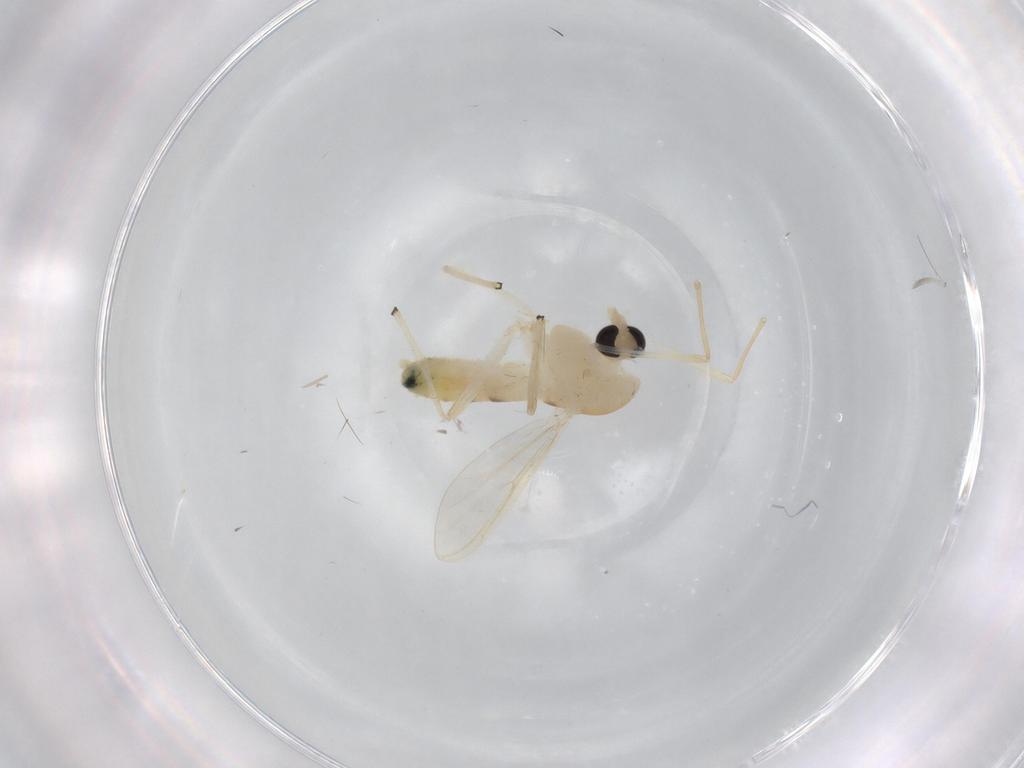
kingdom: Animalia
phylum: Arthropoda
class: Insecta
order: Diptera
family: Chironomidae
